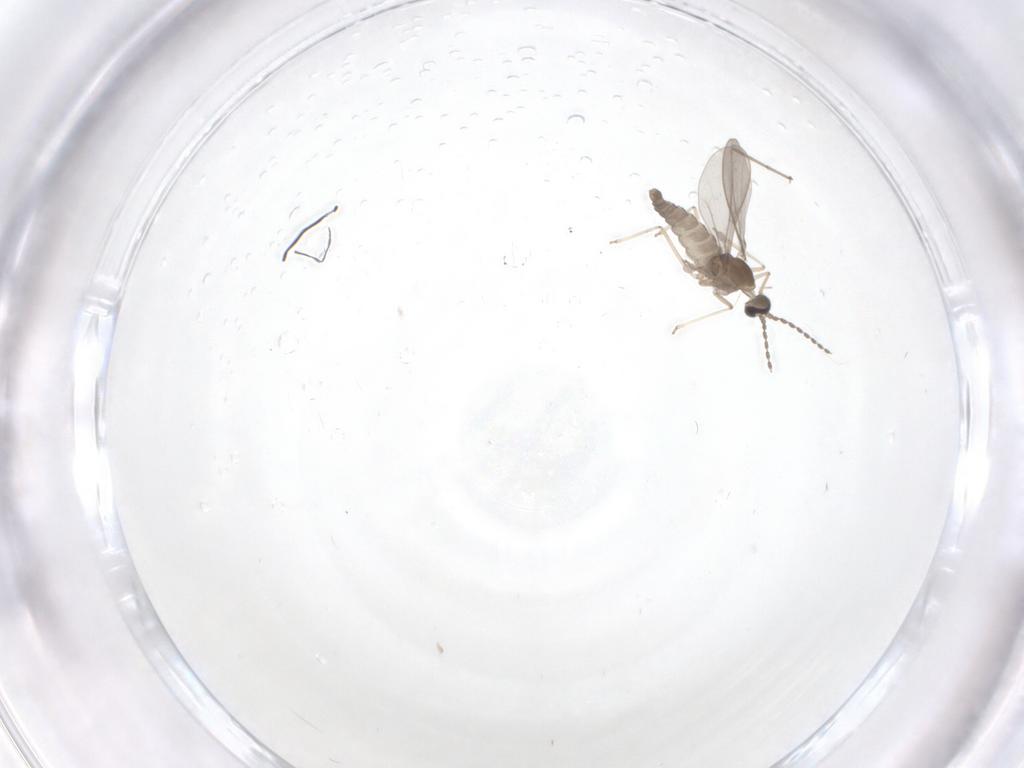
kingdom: Animalia
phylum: Arthropoda
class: Insecta
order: Diptera
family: Cecidomyiidae
